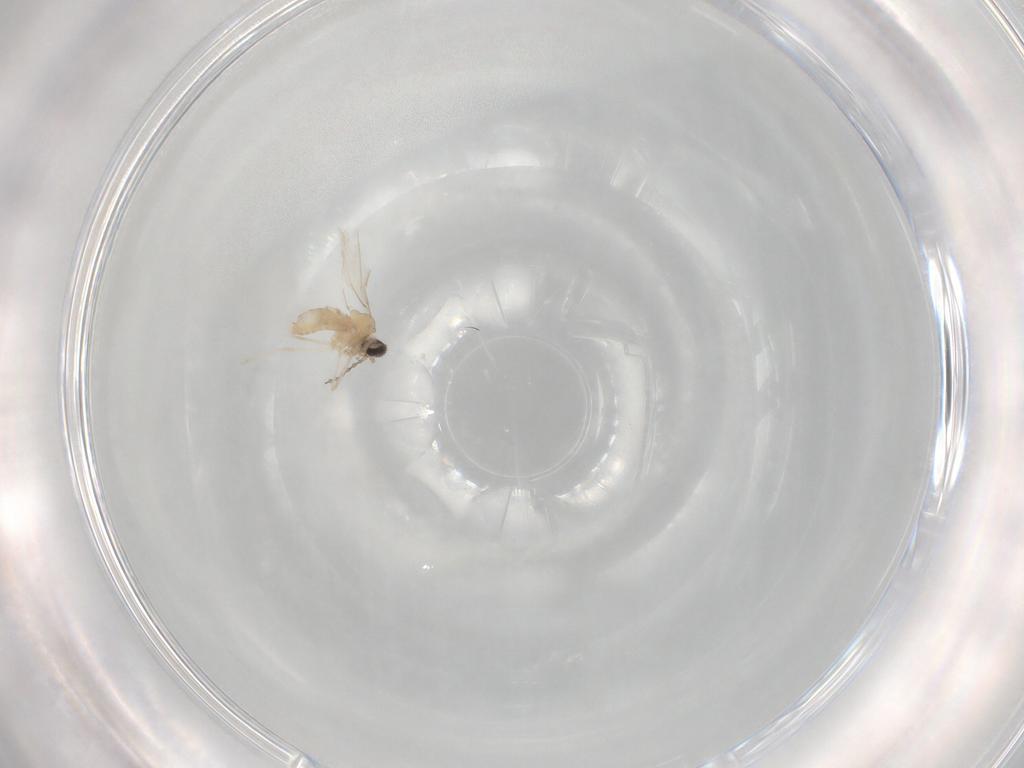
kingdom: Animalia
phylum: Arthropoda
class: Insecta
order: Diptera
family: Cecidomyiidae
